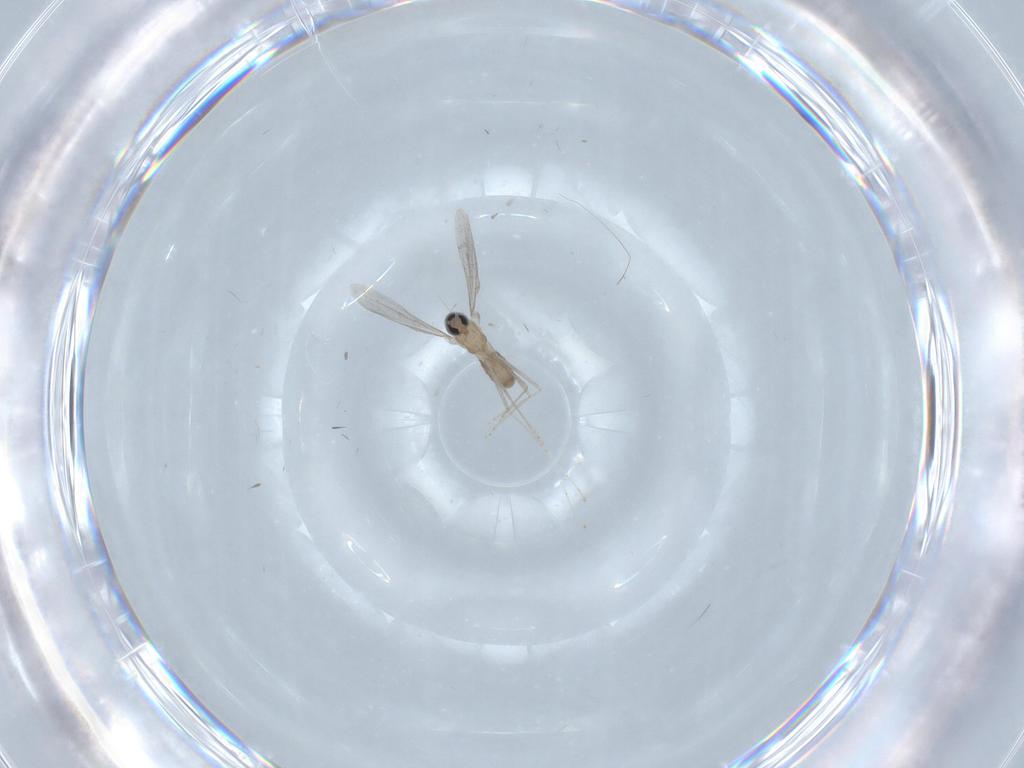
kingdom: Animalia
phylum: Arthropoda
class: Insecta
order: Diptera
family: Cecidomyiidae
